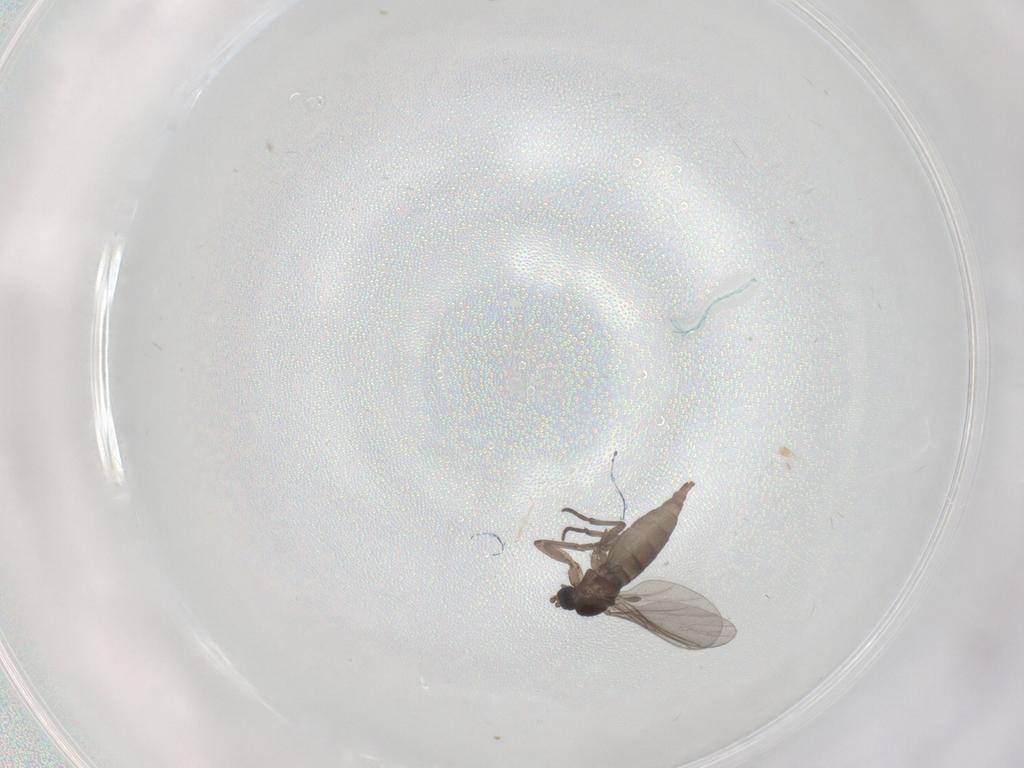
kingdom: Animalia
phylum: Arthropoda
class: Insecta
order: Diptera
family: Sciaridae
